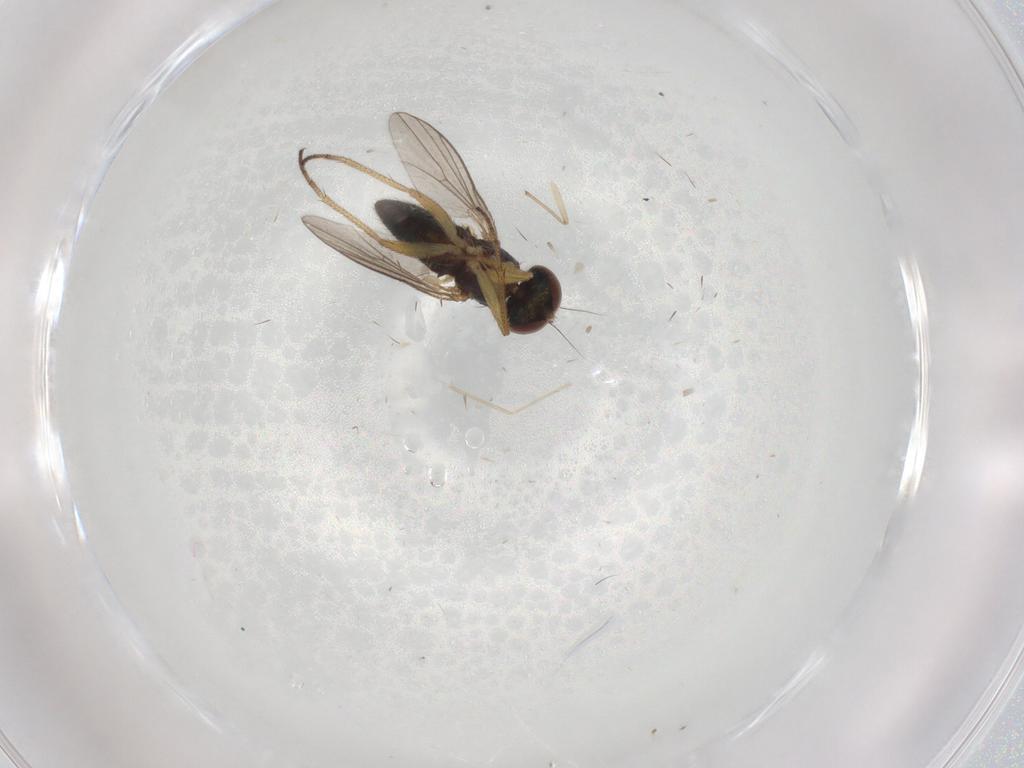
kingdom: Animalia
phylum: Arthropoda
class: Insecta
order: Diptera
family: Chironomidae
